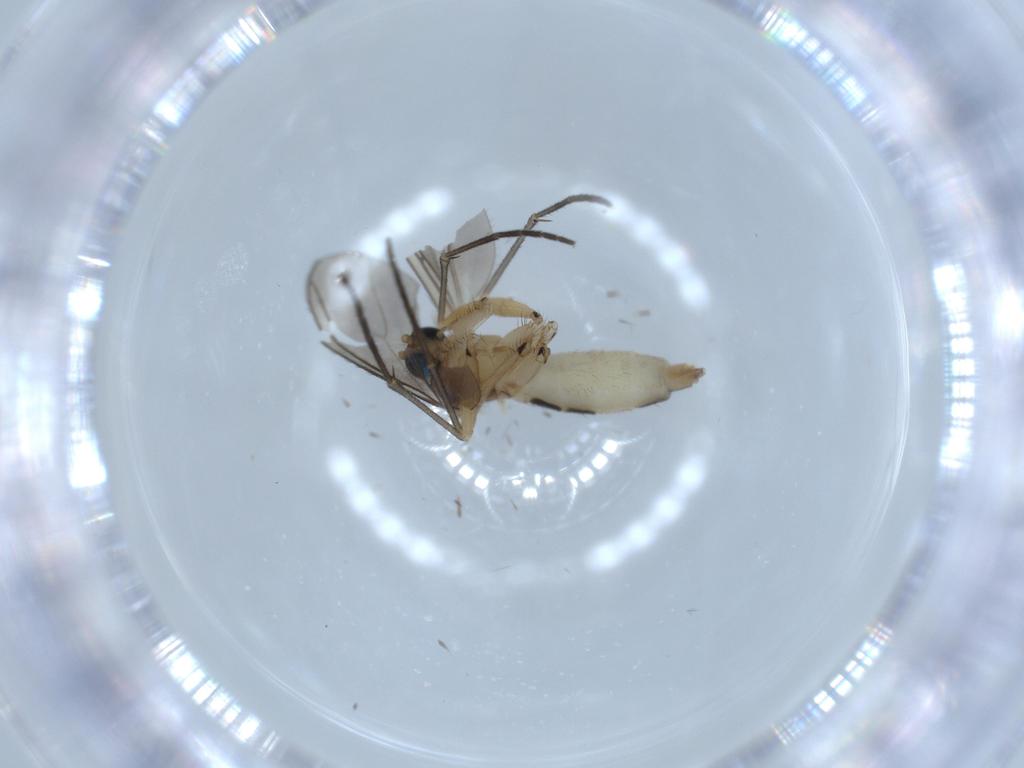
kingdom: Animalia
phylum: Arthropoda
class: Insecta
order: Diptera
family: Sciaridae
